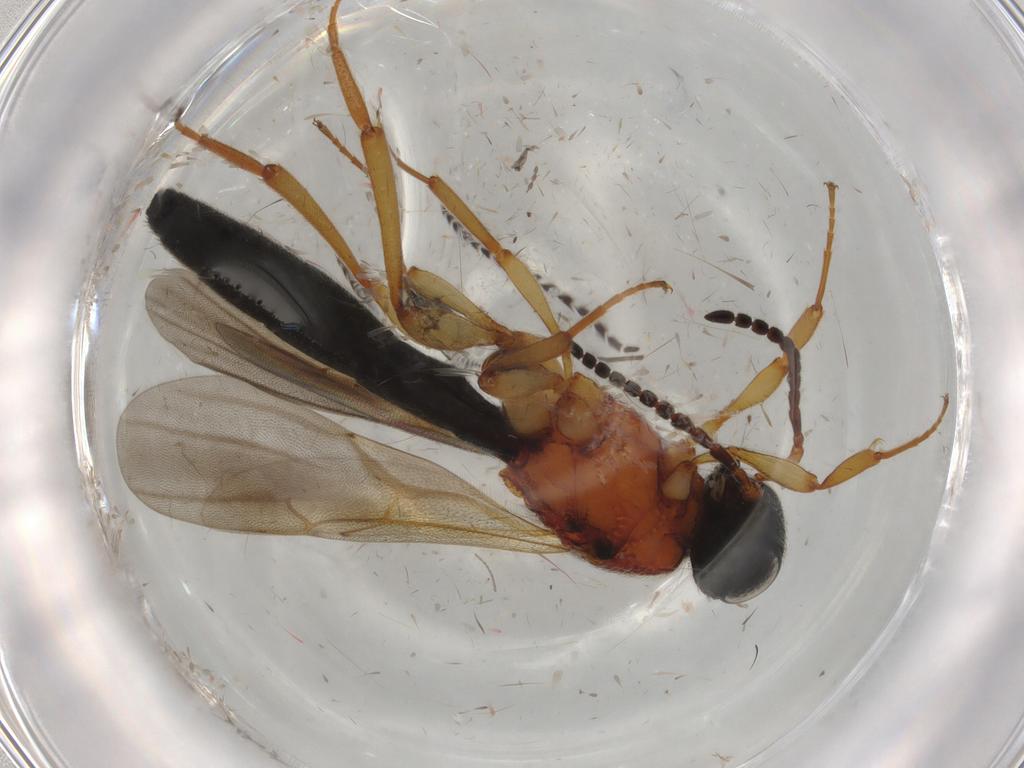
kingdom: Animalia
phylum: Arthropoda
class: Insecta
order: Hymenoptera
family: Scelionidae
